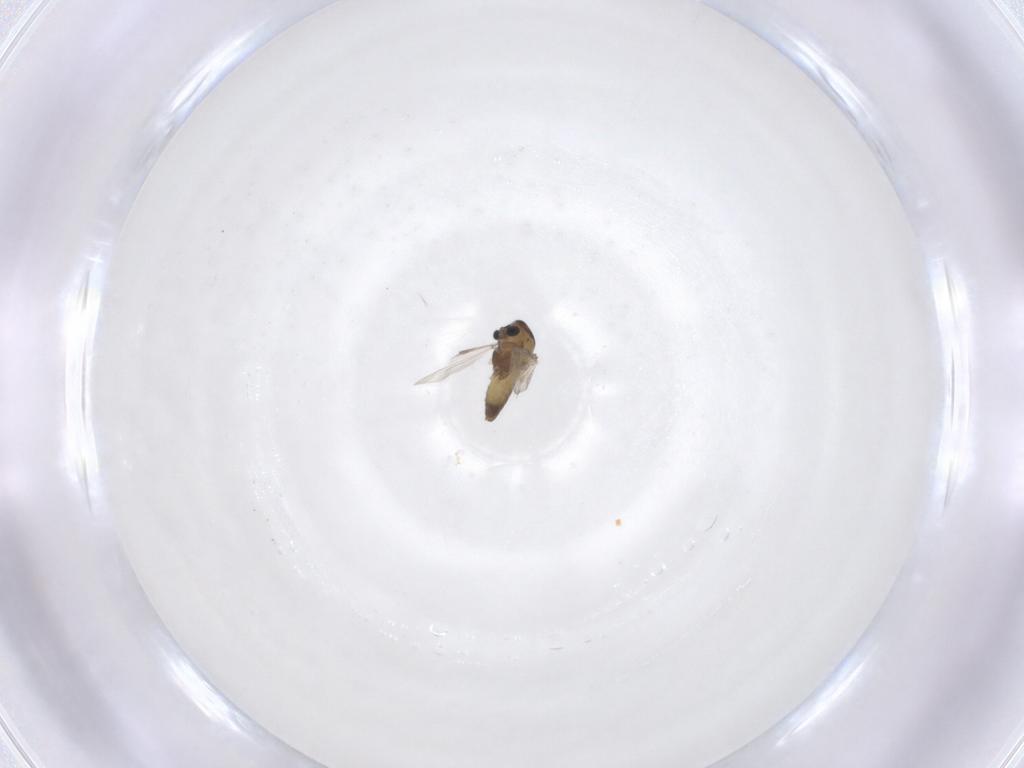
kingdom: Animalia
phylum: Arthropoda
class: Insecta
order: Diptera
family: Chironomidae
